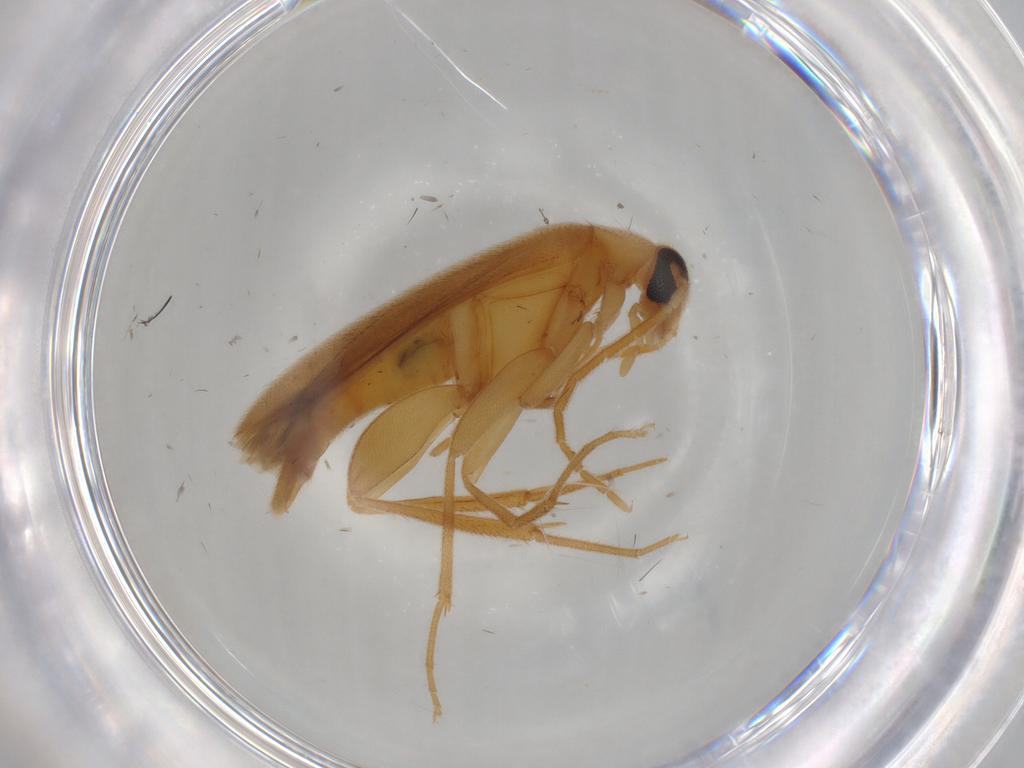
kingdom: Animalia
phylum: Arthropoda
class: Insecta
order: Coleoptera
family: Scraptiidae
